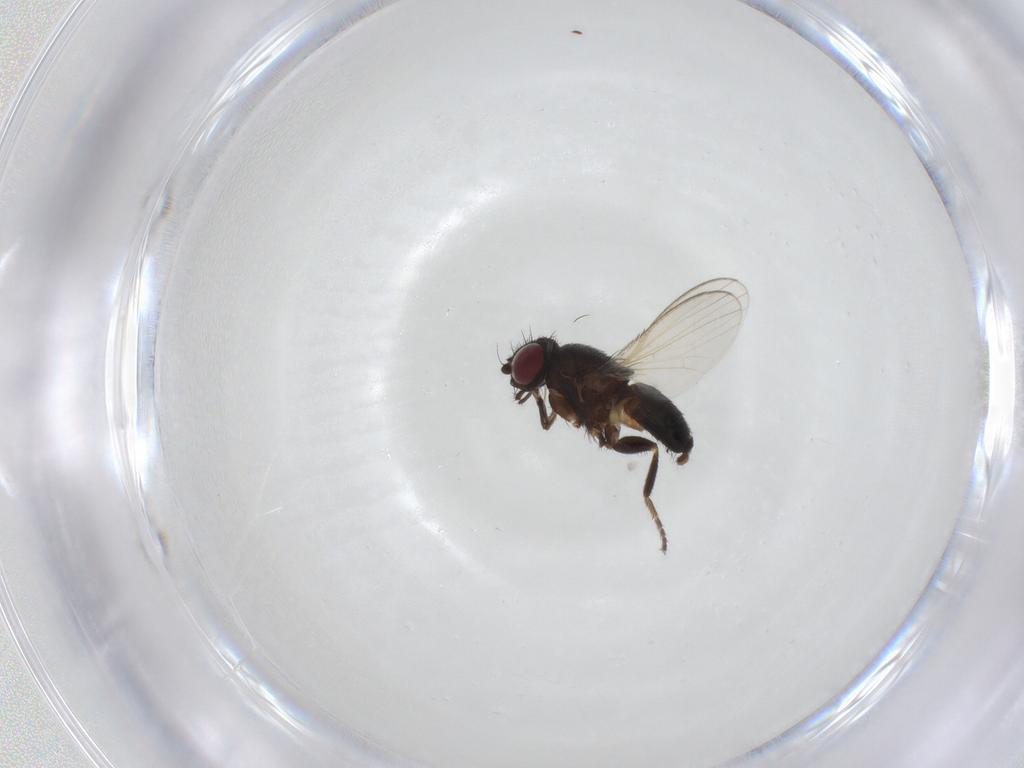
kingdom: Animalia
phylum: Arthropoda
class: Insecta
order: Diptera
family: Milichiidae
